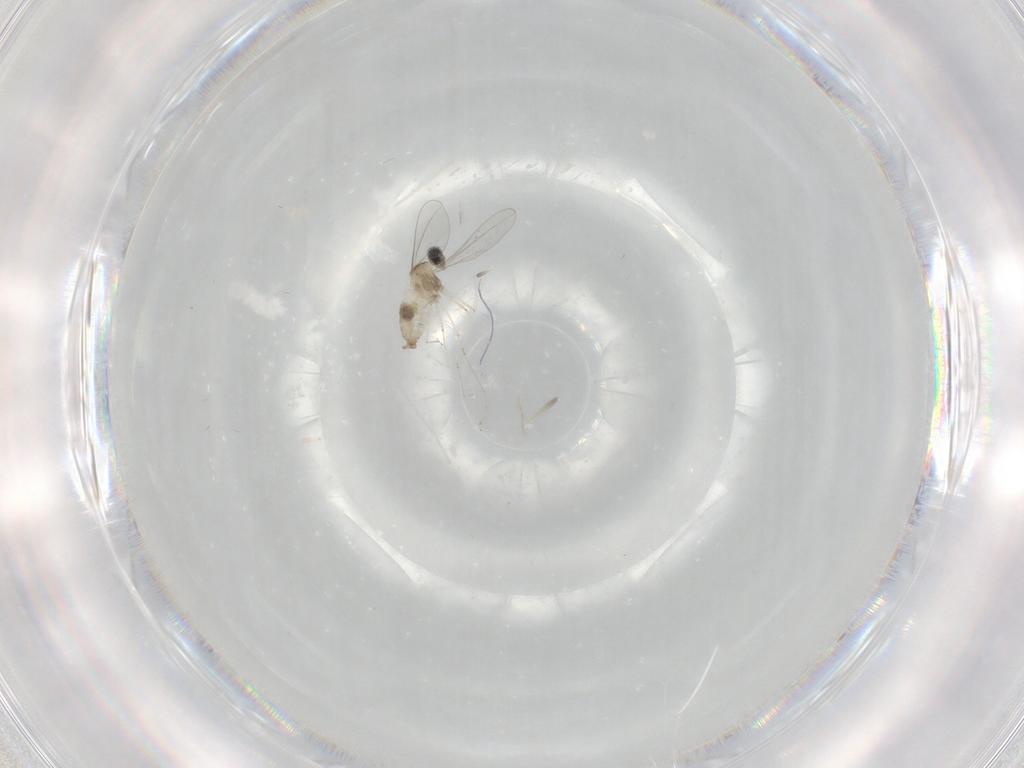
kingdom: Animalia
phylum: Arthropoda
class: Insecta
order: Diptera
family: Cecidomyiidae
